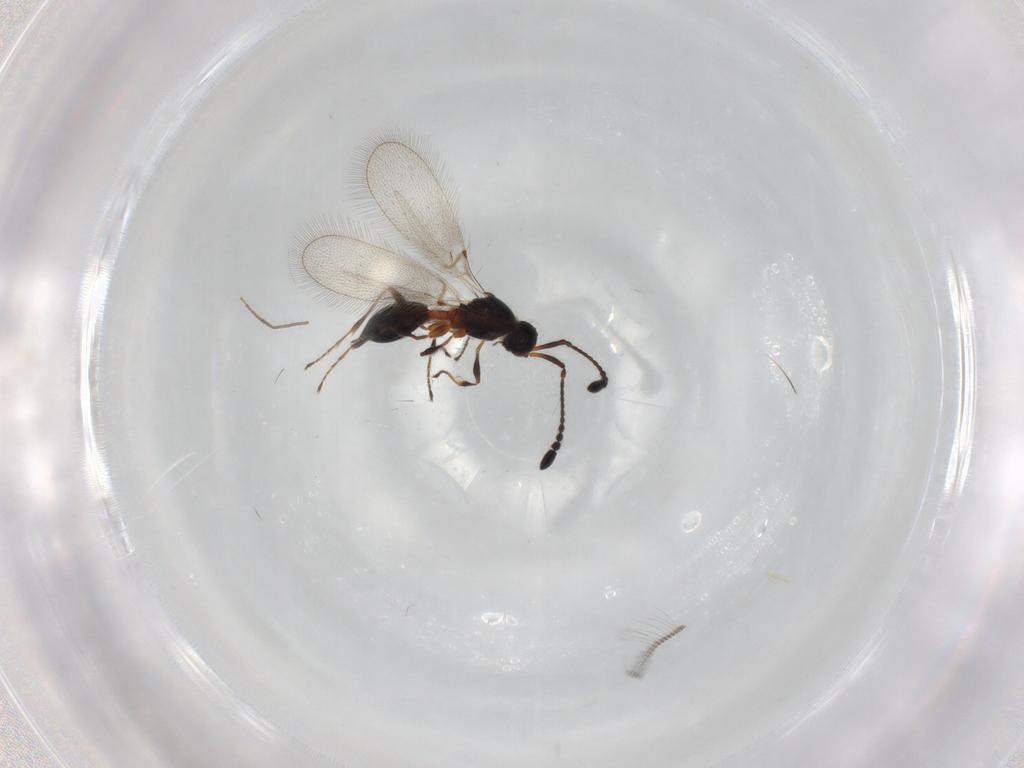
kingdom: Animalia
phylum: Arthropoda
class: Insecta
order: Hymenoptera
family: Diapriidae
